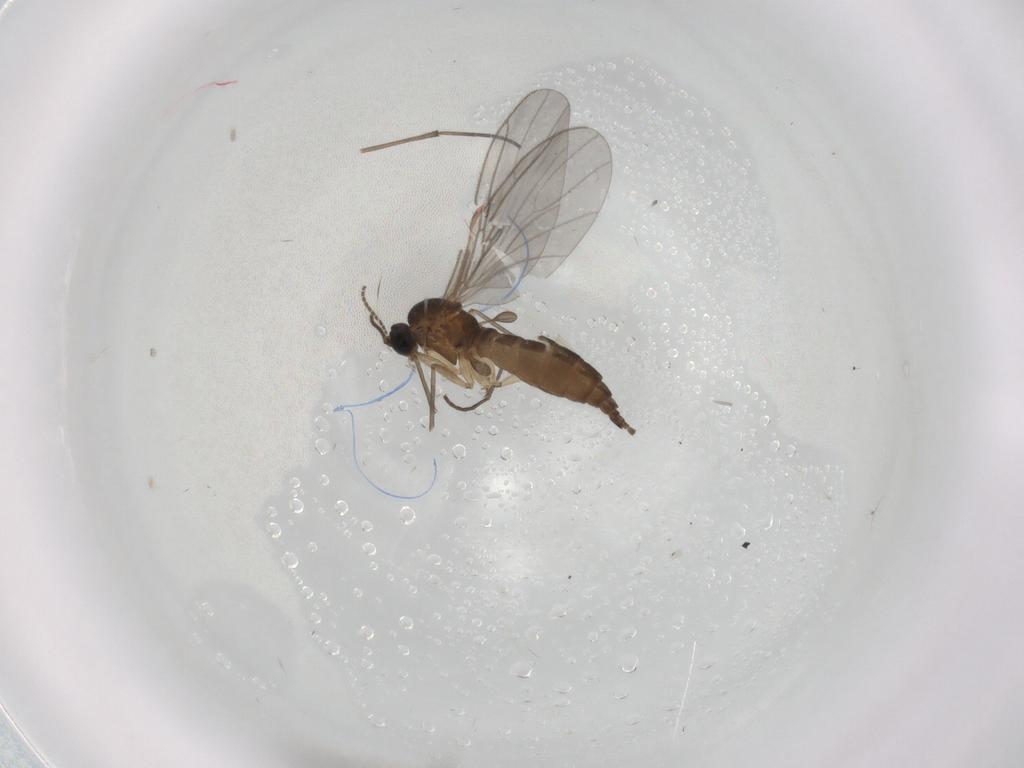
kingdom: Animalia
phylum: Arthropoda
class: Insecta
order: Diptera
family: Sciaridae
